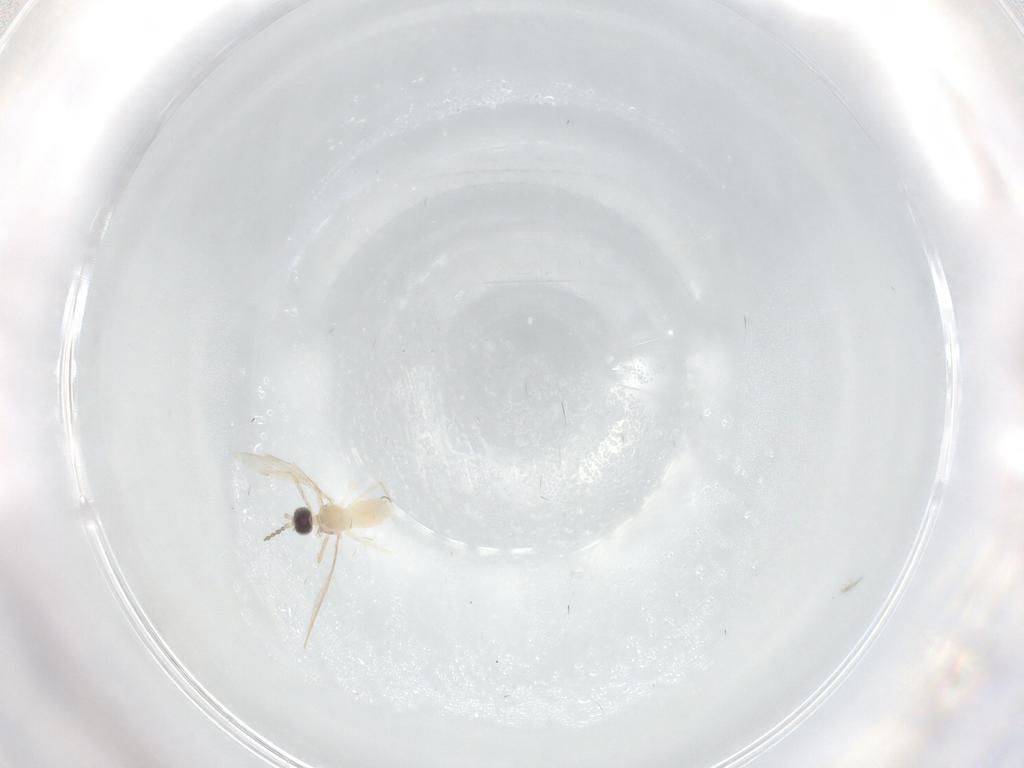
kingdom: Animalia
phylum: Arthropoda
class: Insecta
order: Diptera
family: Cecidomyiidae
